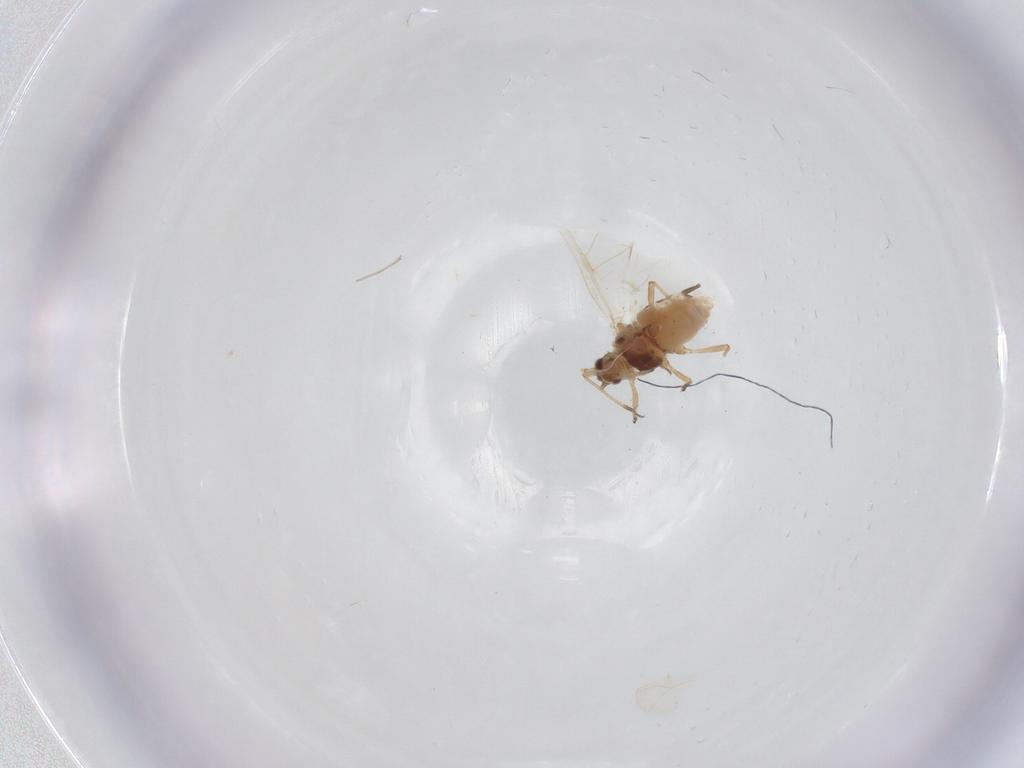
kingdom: Animalia
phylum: Arthropoda
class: Insecta
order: Hemiptera
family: Aphididae
